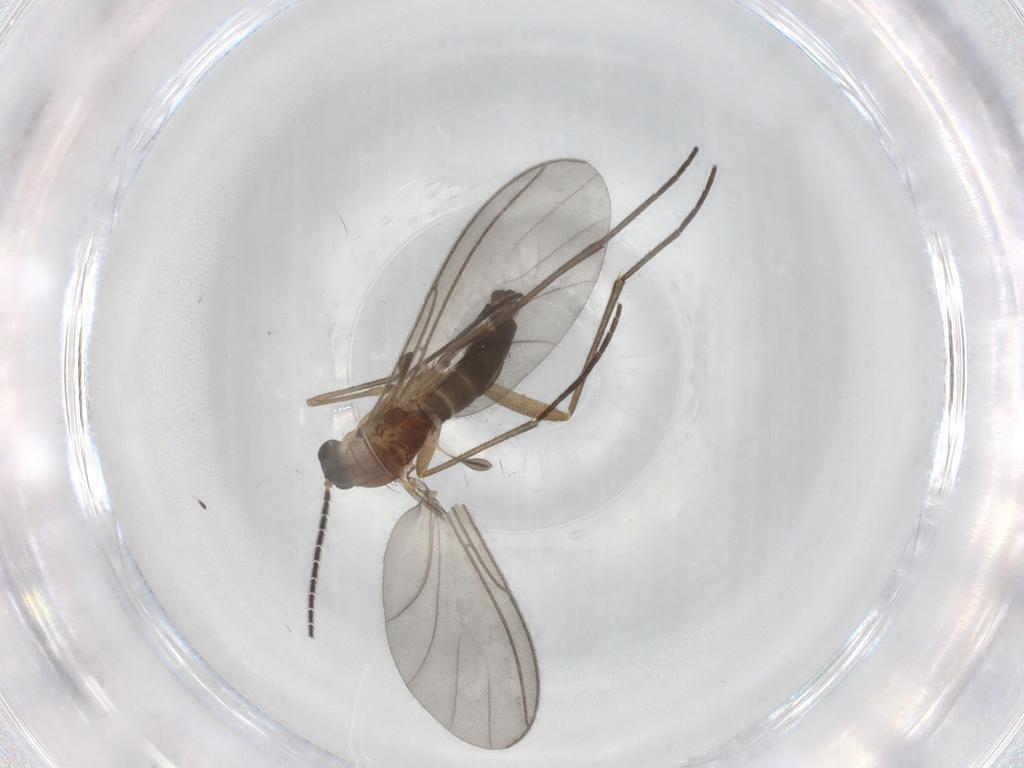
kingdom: Animalia
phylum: Arthropoda
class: Insecta
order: Diptera
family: Sciaridae
